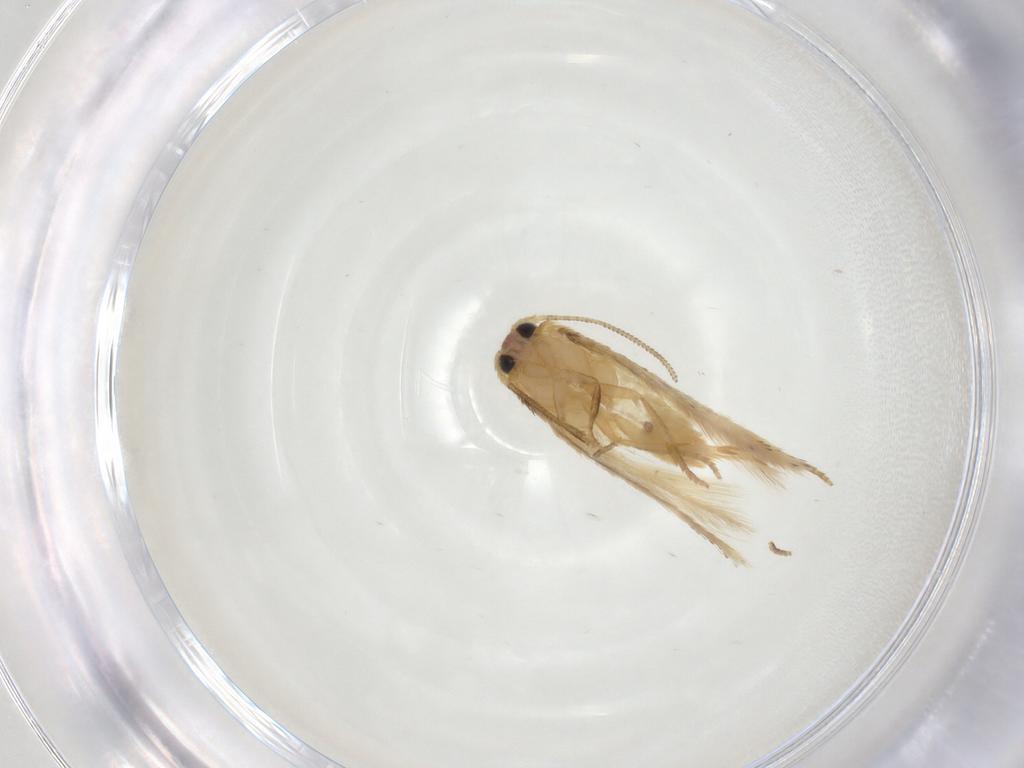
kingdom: Animalia
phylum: Arthropoda
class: Insecta
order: Lepidoptera
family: Nepticulidae
